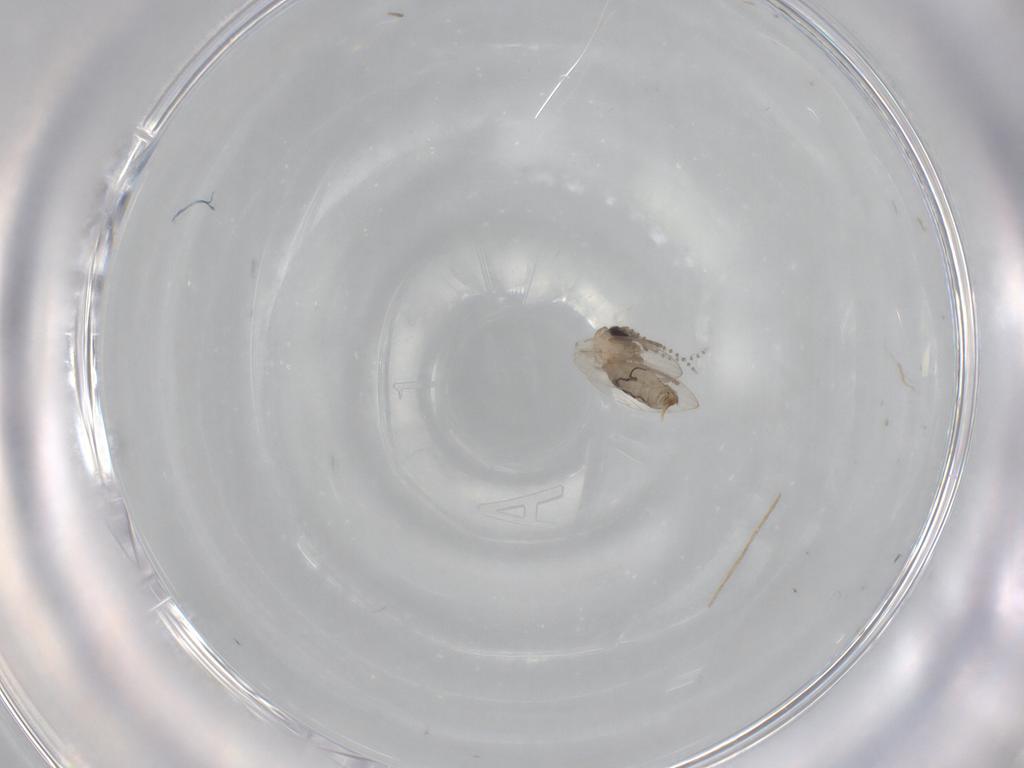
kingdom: Animalia
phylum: Arthropoda
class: Insecta
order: Diptera
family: Psychodidae
